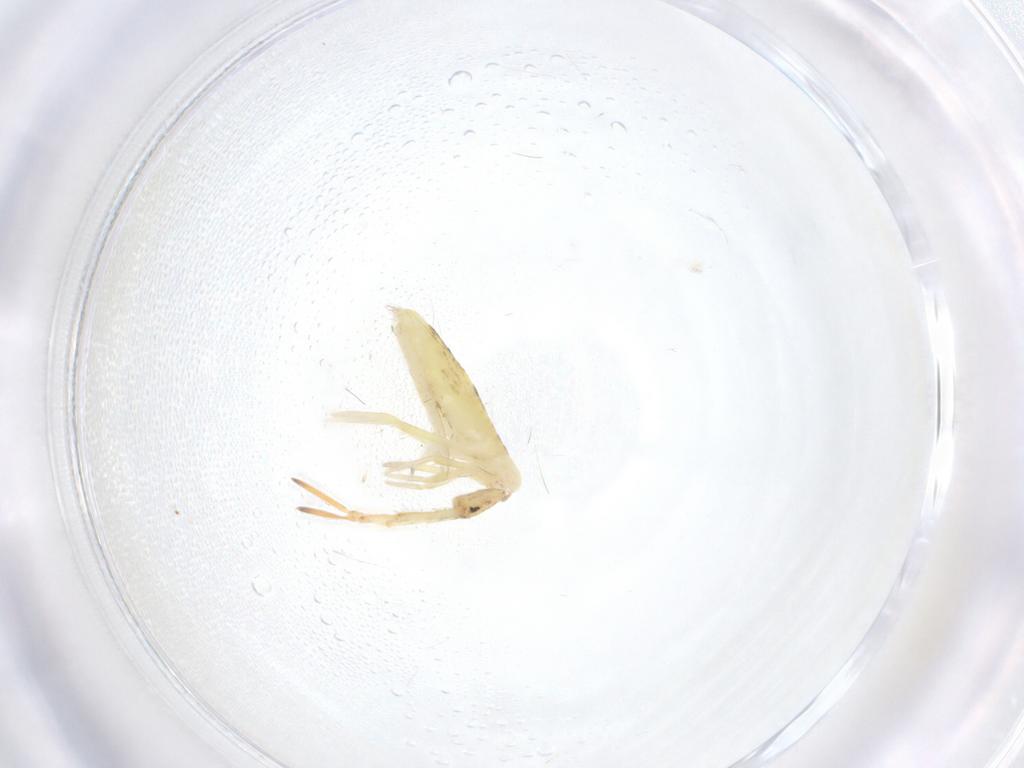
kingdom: Animalia
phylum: Arthropoda
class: Collembola
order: Entomobryomorpha
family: Entomobryidae
